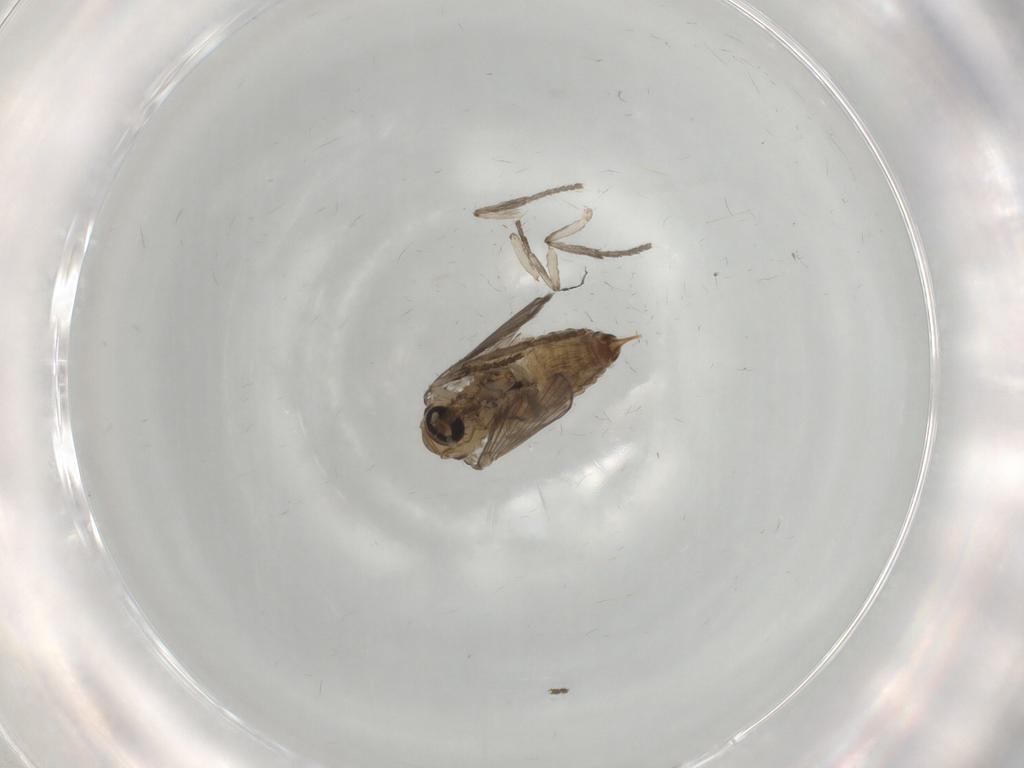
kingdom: Animalia
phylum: Arthropoda
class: Insecta
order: Diptera
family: Psychodidae
